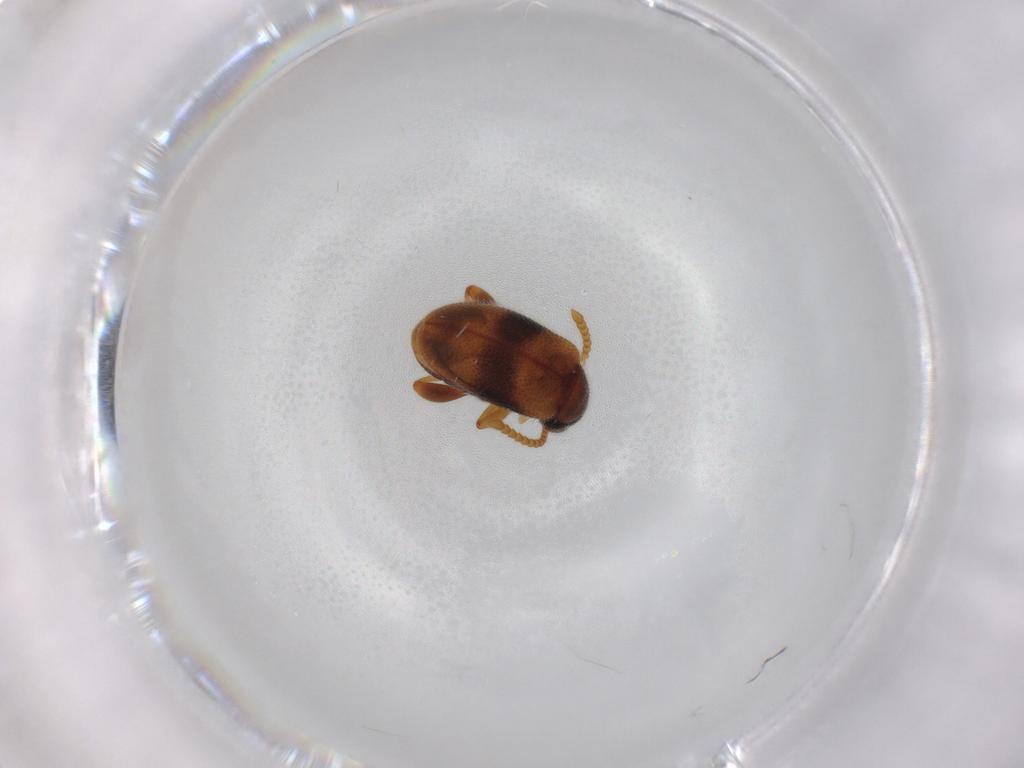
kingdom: Animalia
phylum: Arthropoda
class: Insecta
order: Coleoptera
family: Aderidae
